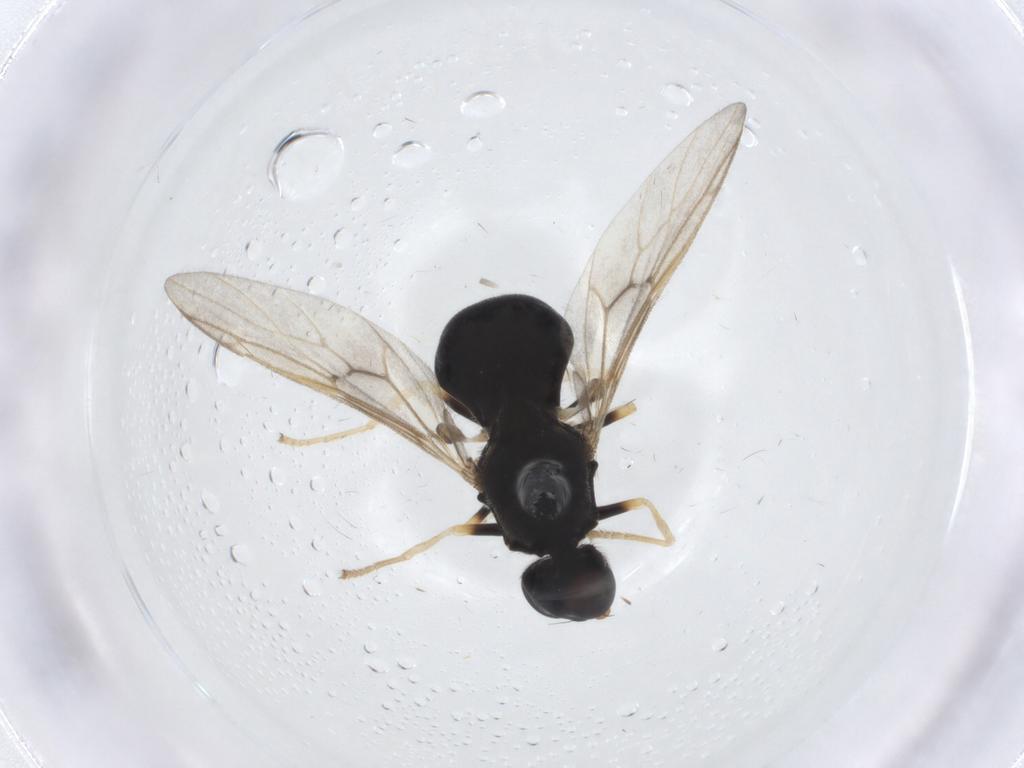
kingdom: Animalia
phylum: Arthropoda
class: Insecta
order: Diptera
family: Stratiomyidae
